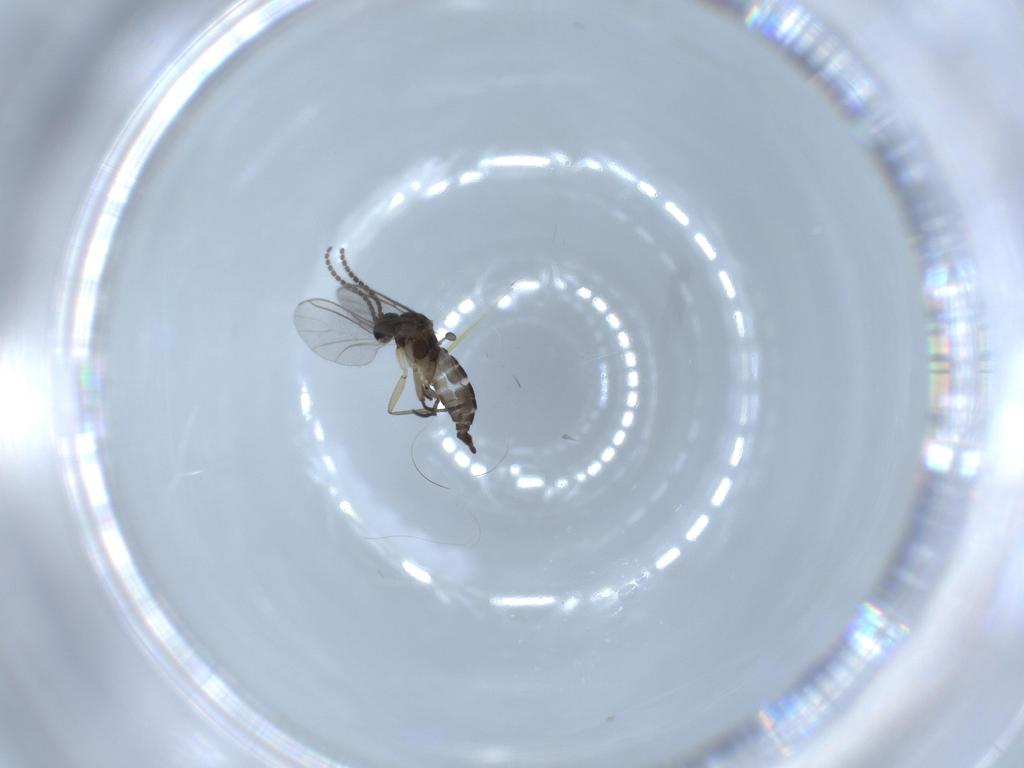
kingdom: Animalia
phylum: Arthropoda
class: Insecta
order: Diptera
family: Sciaridae
